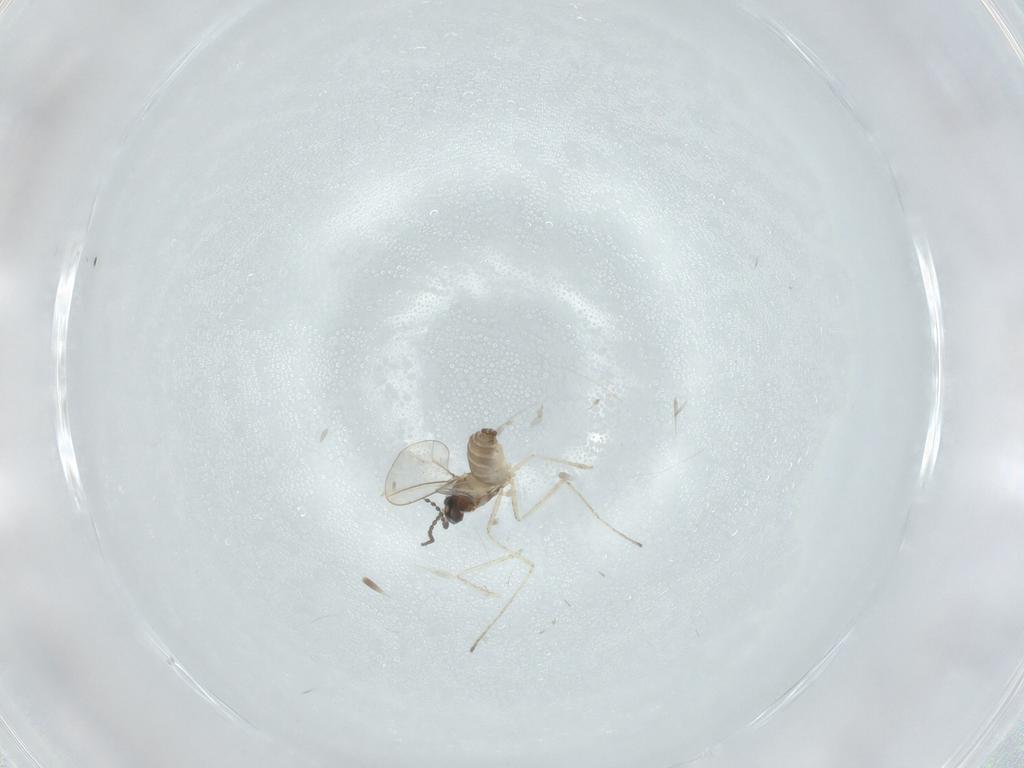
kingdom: Animalia
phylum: Arthropoda
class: Insecta
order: Diptera
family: Cecidomyiidae
